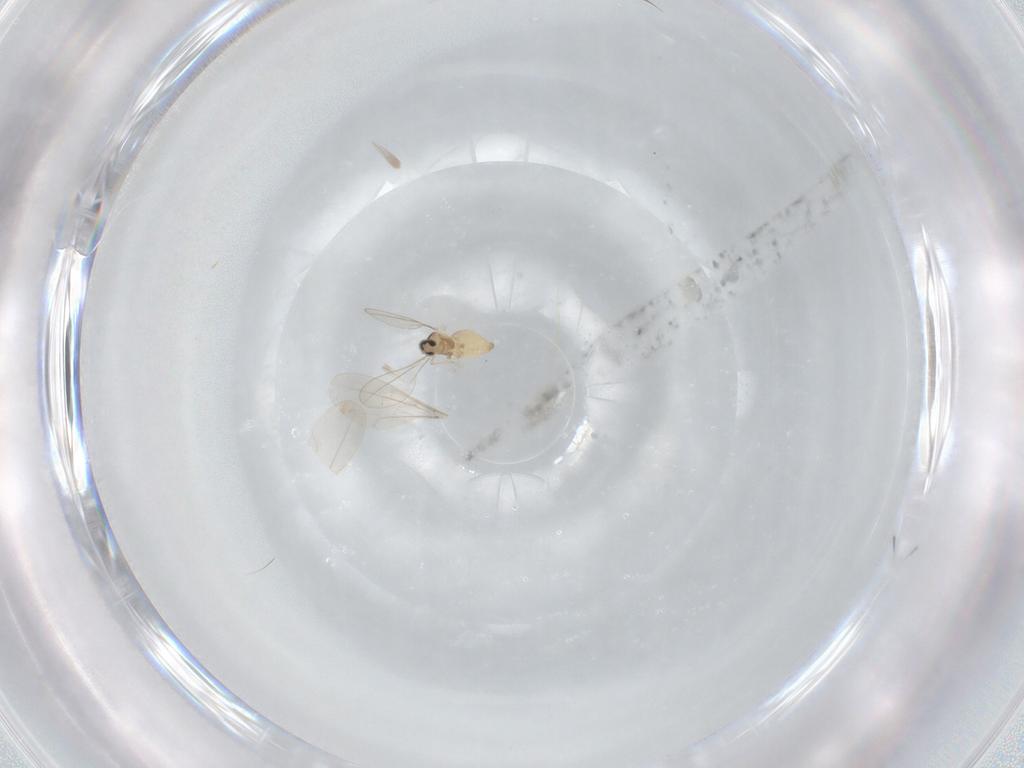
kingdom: Animalia
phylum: Arthropoda
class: Insecta
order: Diptera
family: Cecidomyiidae
